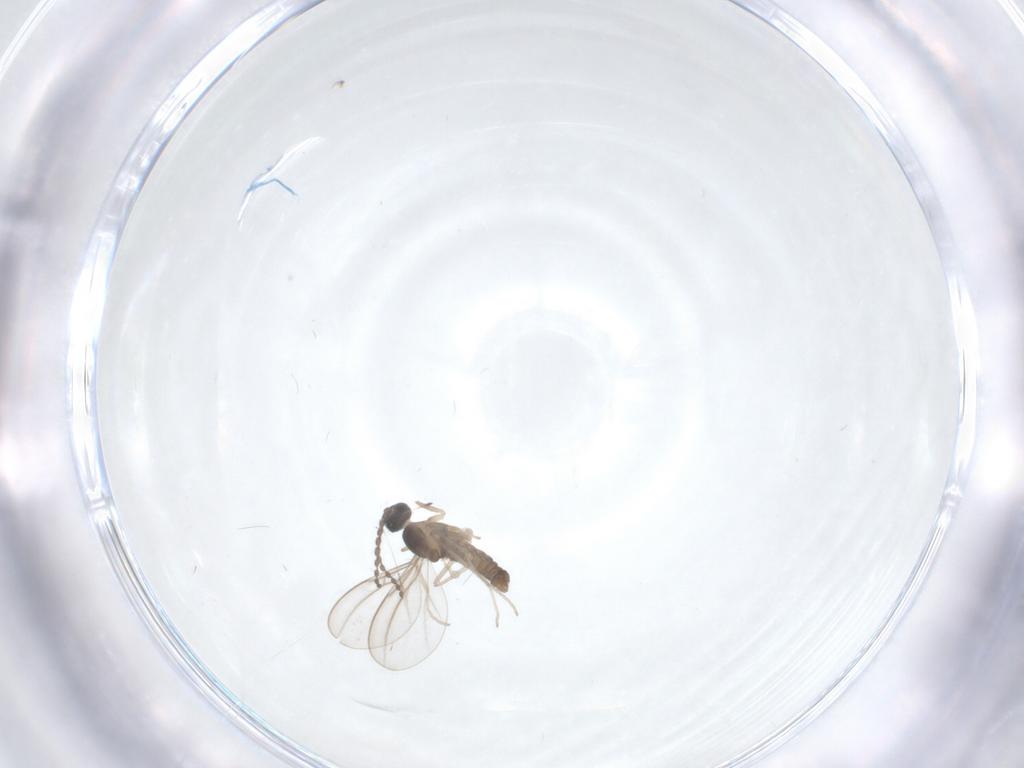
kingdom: Animalia
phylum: Arthropoda
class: Insecta
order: Diptera
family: Cecidomyiidae
